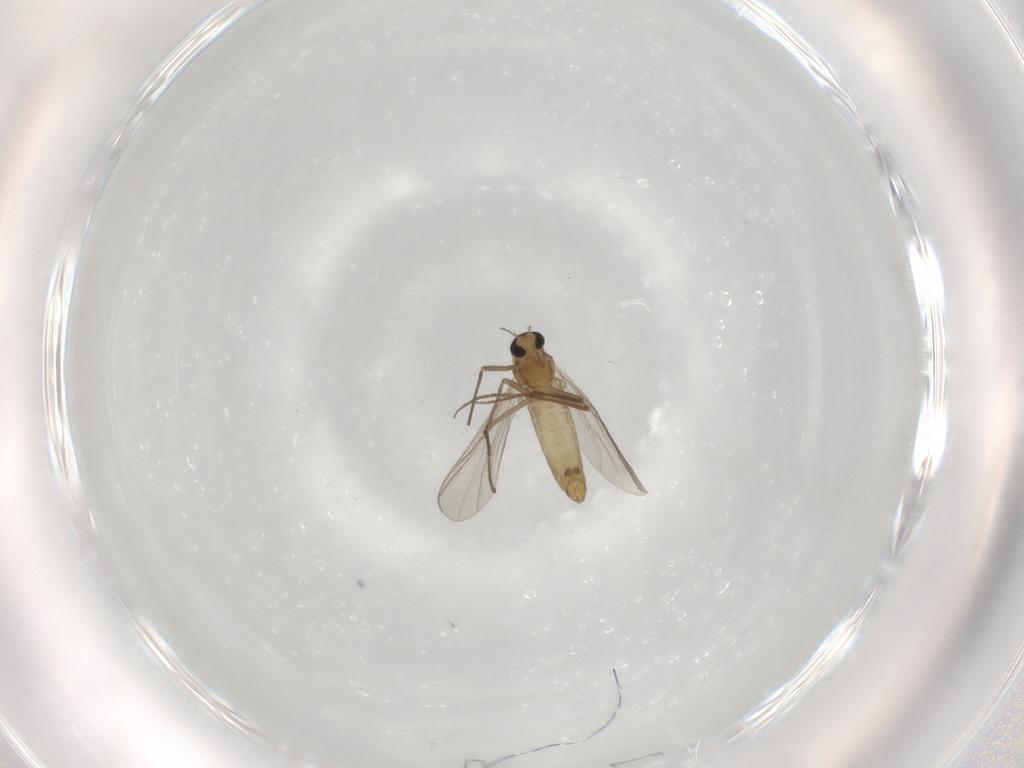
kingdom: Animalia
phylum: Arthropoda
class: Insecta
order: Diptera
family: Chironomidae
